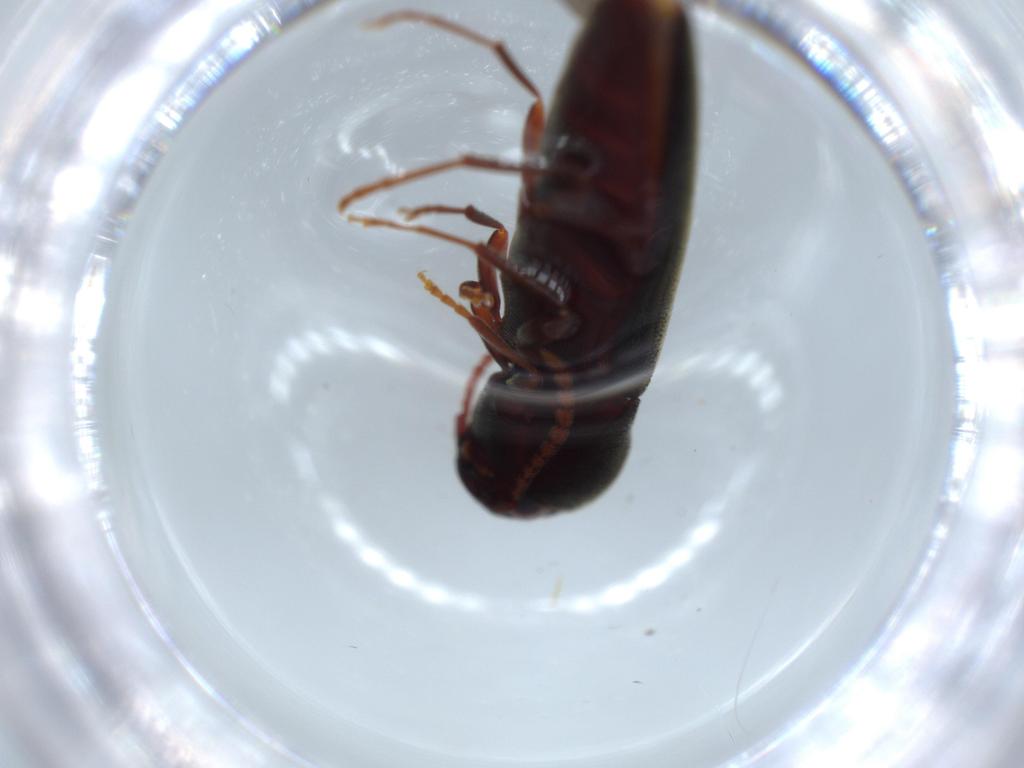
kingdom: Animalia
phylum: Arthropoda
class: Insecta
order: Coleoptera
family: Eucnemidae
